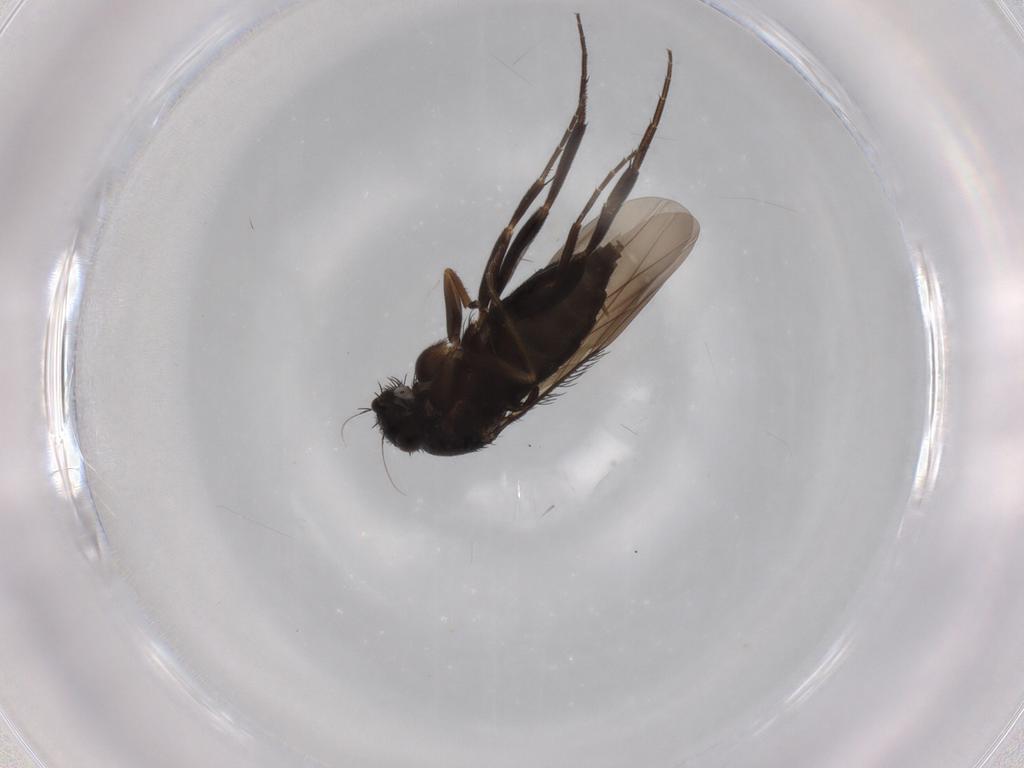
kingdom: Animalia
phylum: Arthropoda
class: Insecta
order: Diptera
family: Phoridae
